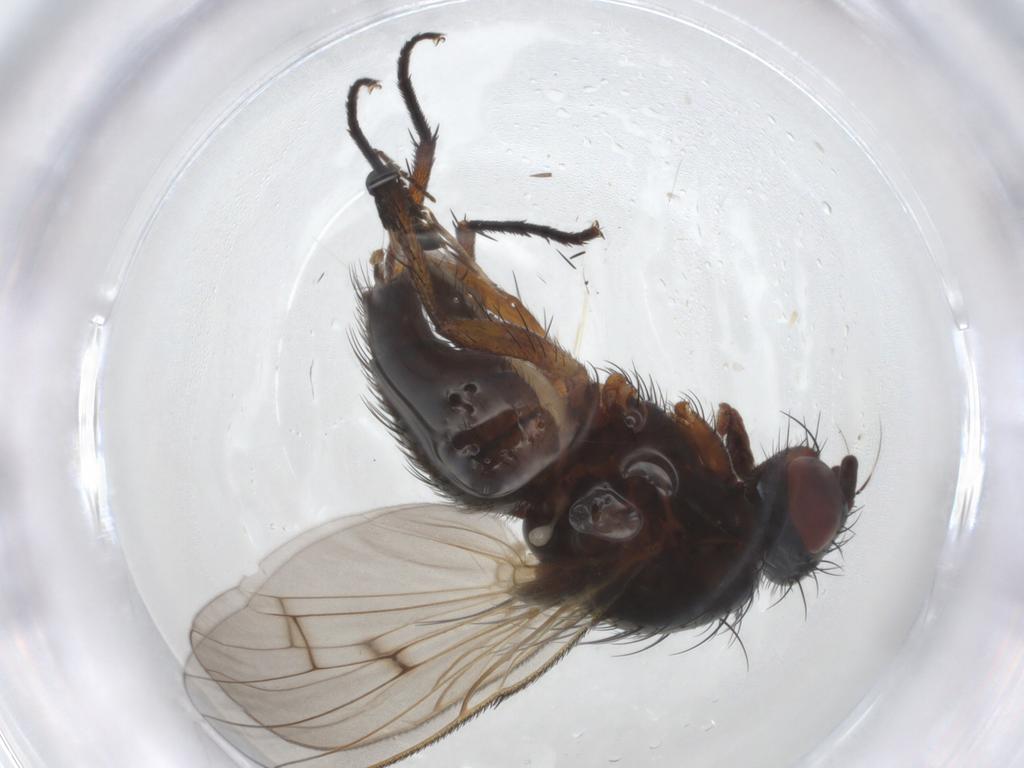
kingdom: Animalia
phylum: Arthropoda
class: Insecta
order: Diptera
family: Anthomyiidae
